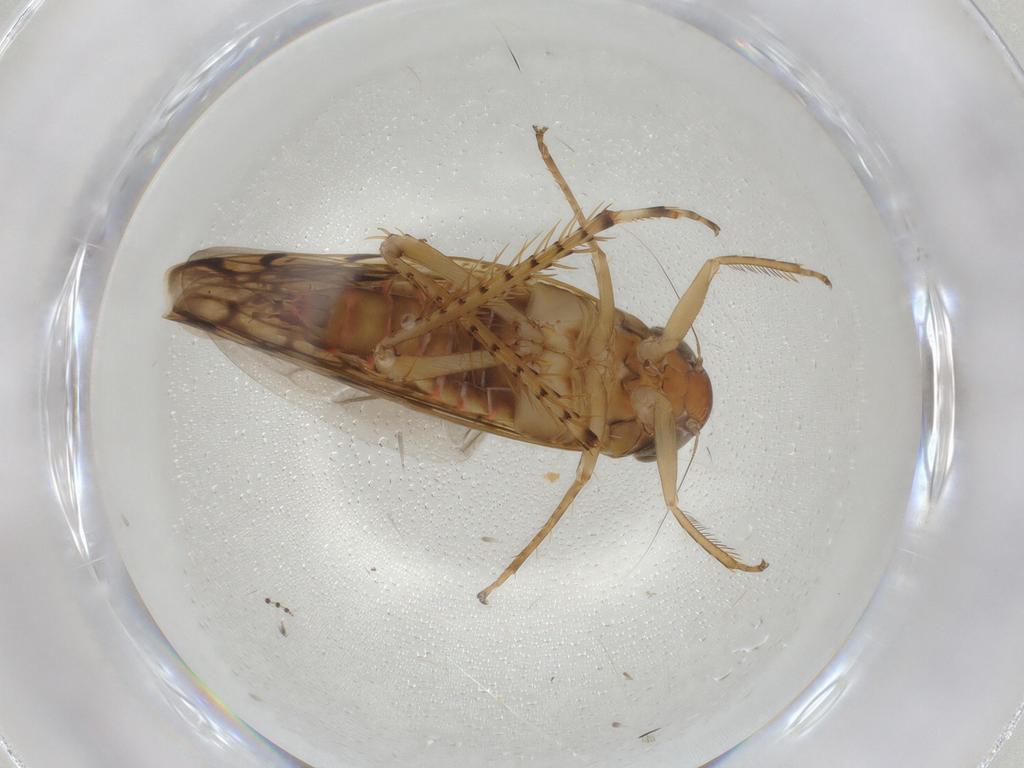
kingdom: Animalia
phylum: Arthropoda
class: Insecta
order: Hemiptera
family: Cicadellidae
